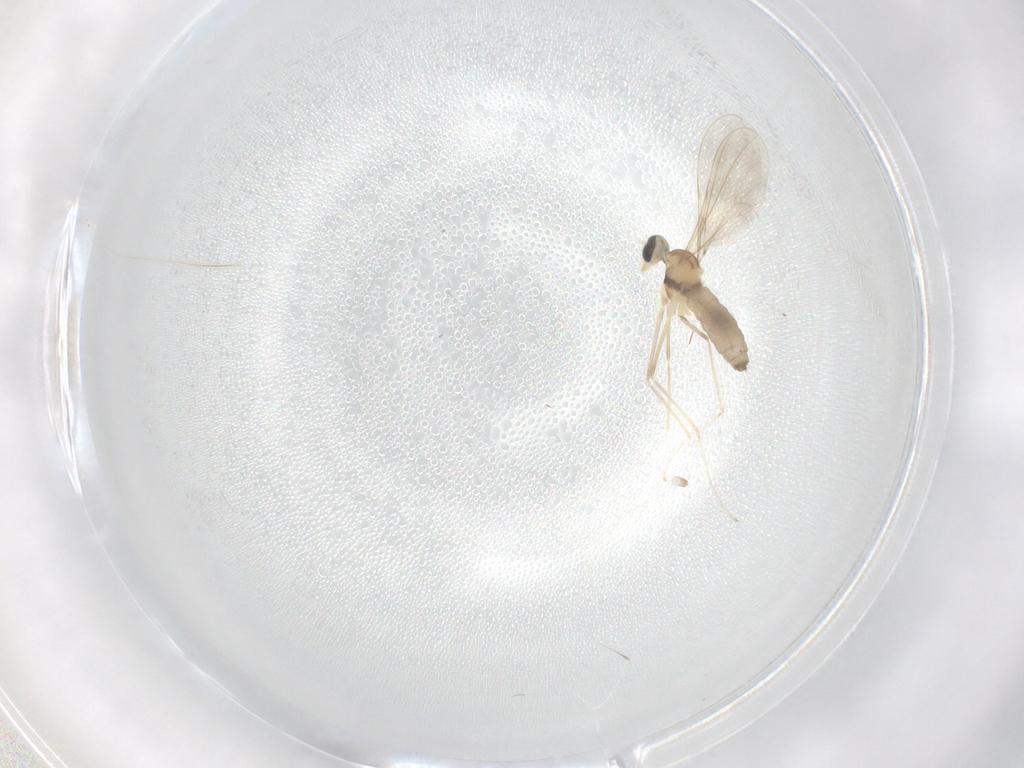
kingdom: Animalia
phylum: Arthropoda
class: Insecta
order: Diptera
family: Cecidomyiidae
